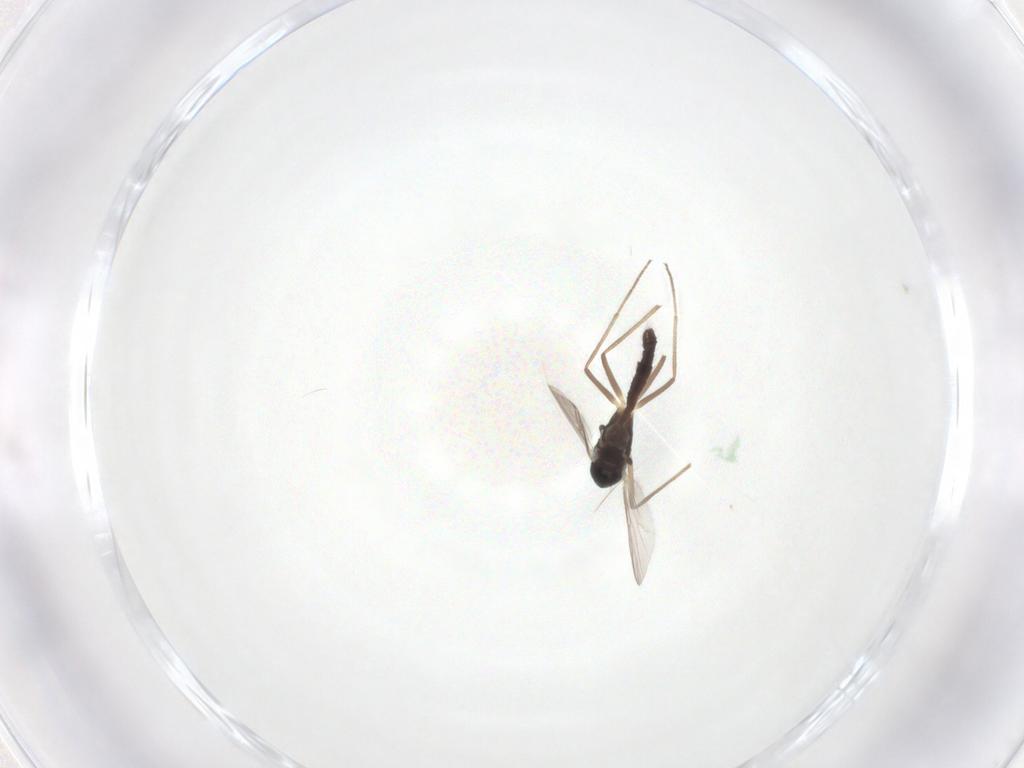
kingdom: Animalia
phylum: Arthropoda
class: Insecta
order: Diptera
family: Chironomidae
